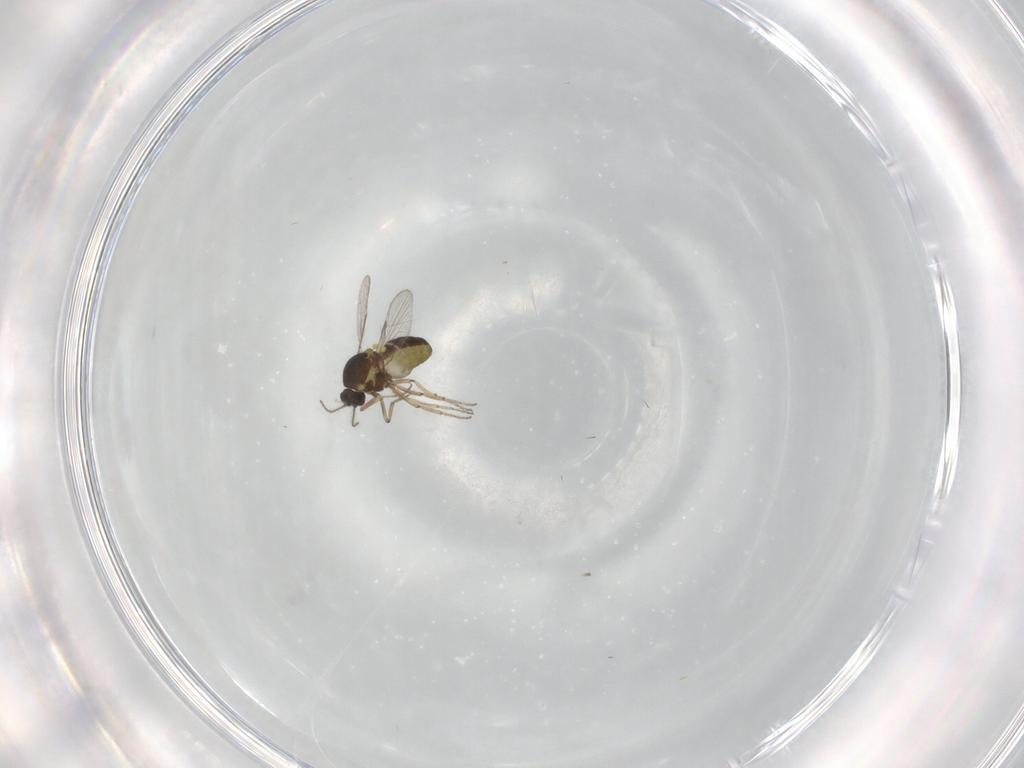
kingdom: Animalia
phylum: Arthropoda
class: Insecta
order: Diptera
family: Ceratopogonidae
